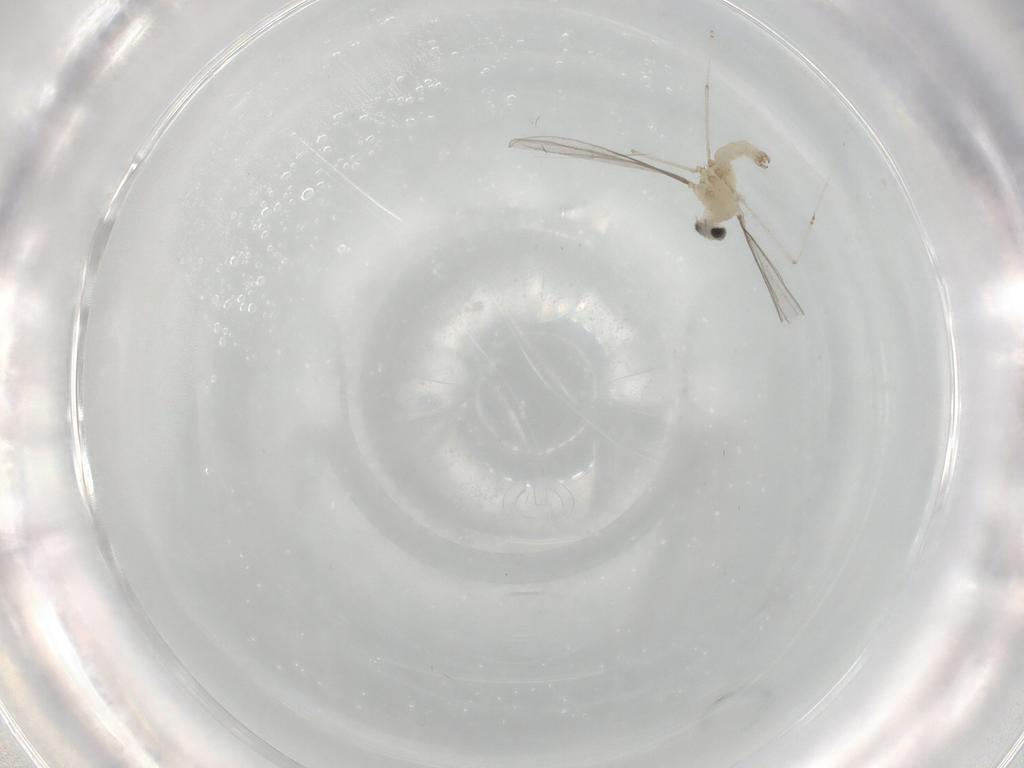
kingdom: Animalia
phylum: Arthropoda
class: Insecta
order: Diptera
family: Cecidomyiidae
